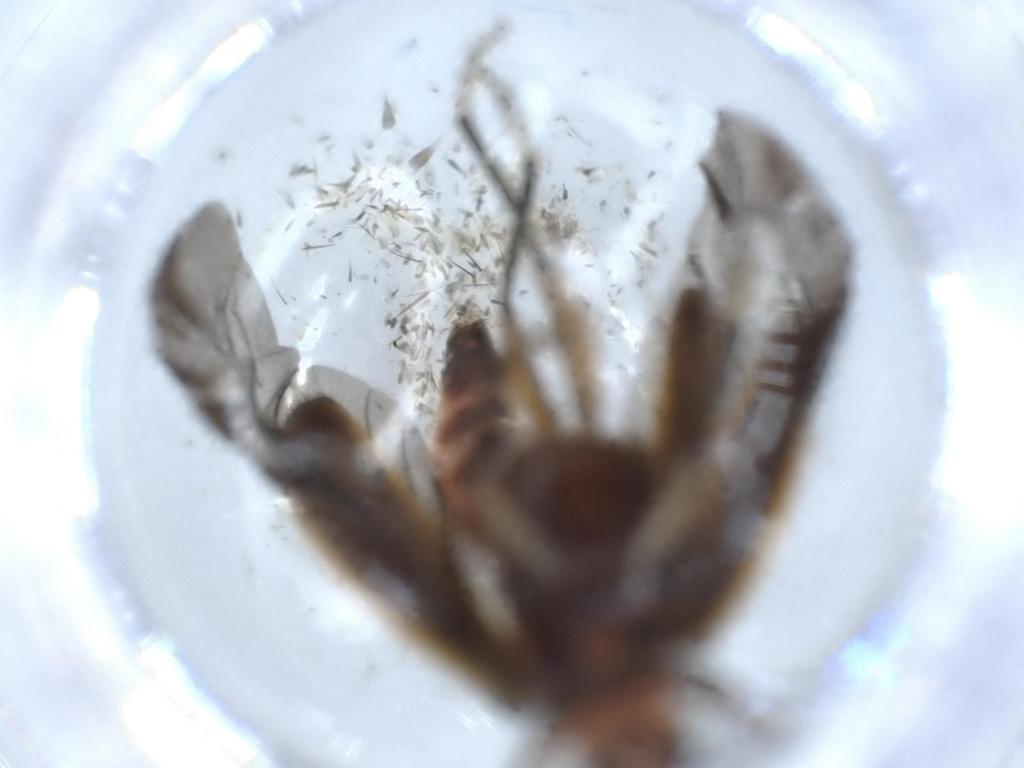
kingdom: Animalia
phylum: Arthropoda
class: Insecta
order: Coleoptera
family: Cleridae
